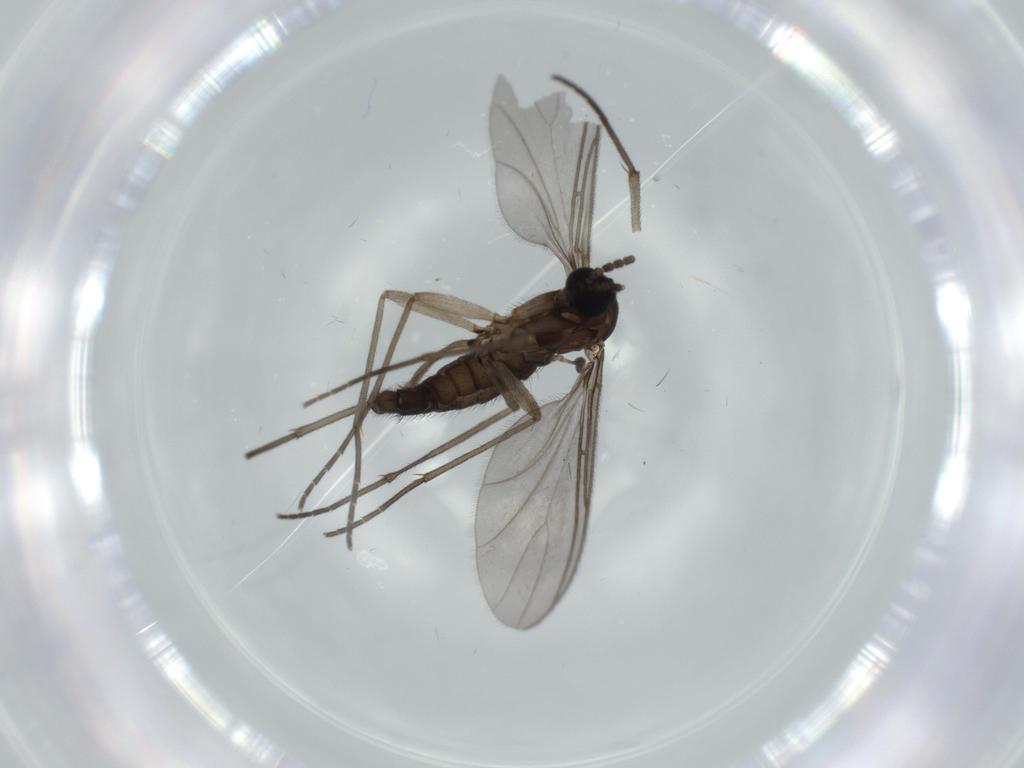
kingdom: Animalia
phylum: Arthropoda
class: Insecta
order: Diptera
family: Sciaridae
